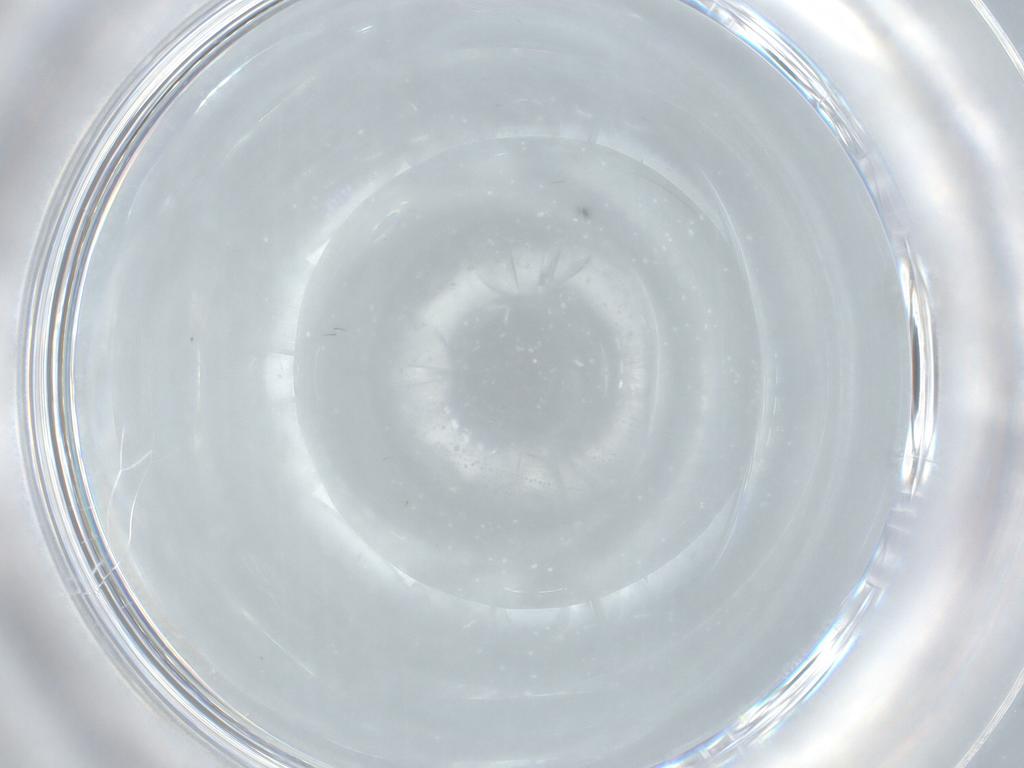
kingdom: Animalia
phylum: Arthropoda
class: Insecta
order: Hymenoptera
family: Mymaridae
